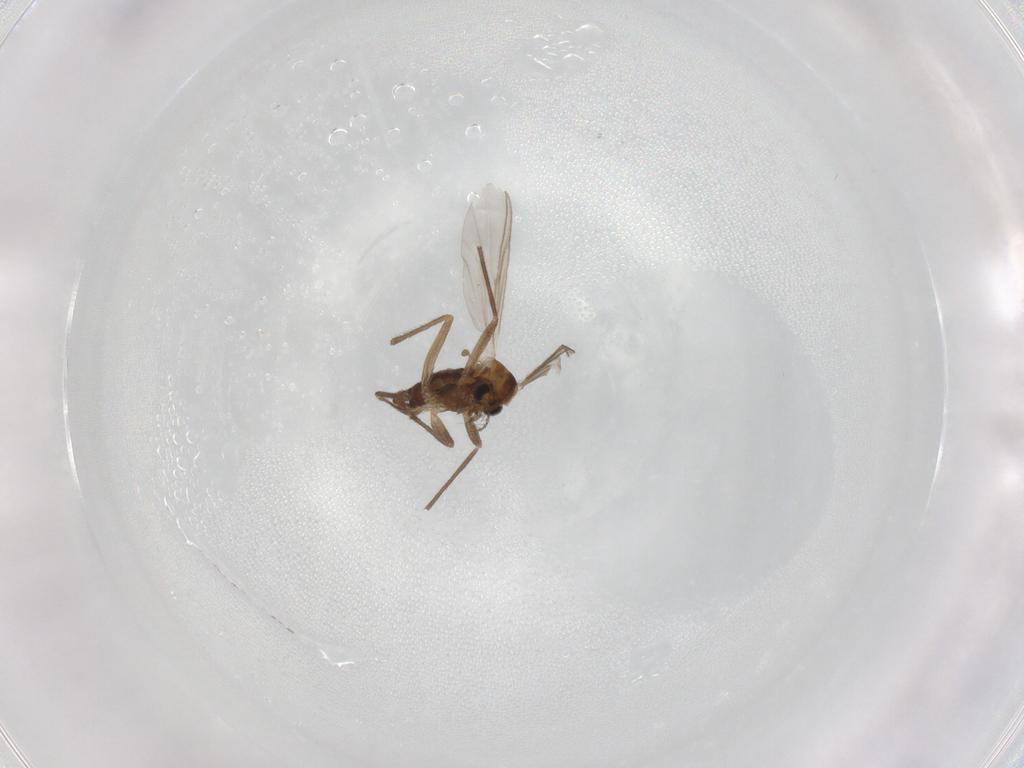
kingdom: Animalia
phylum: Arthropoda
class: Insecta
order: Diptera
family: Chironomidae
